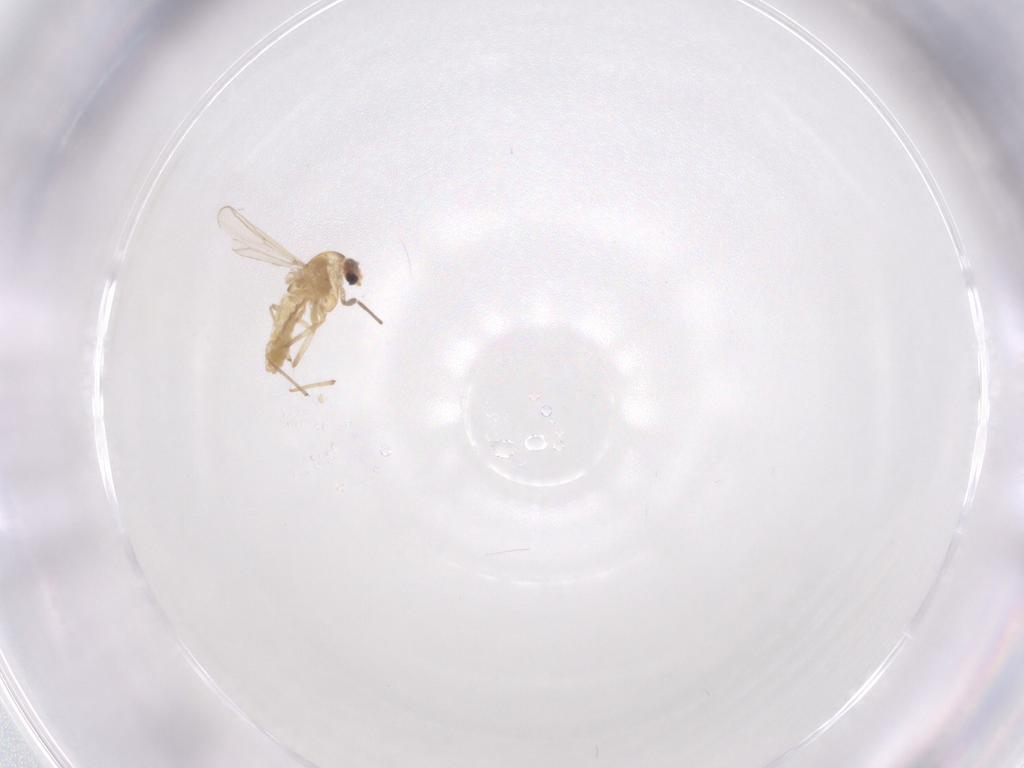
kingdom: Animalia
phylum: Arthropoda
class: Insecta
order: Diptera
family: Chironomidae
